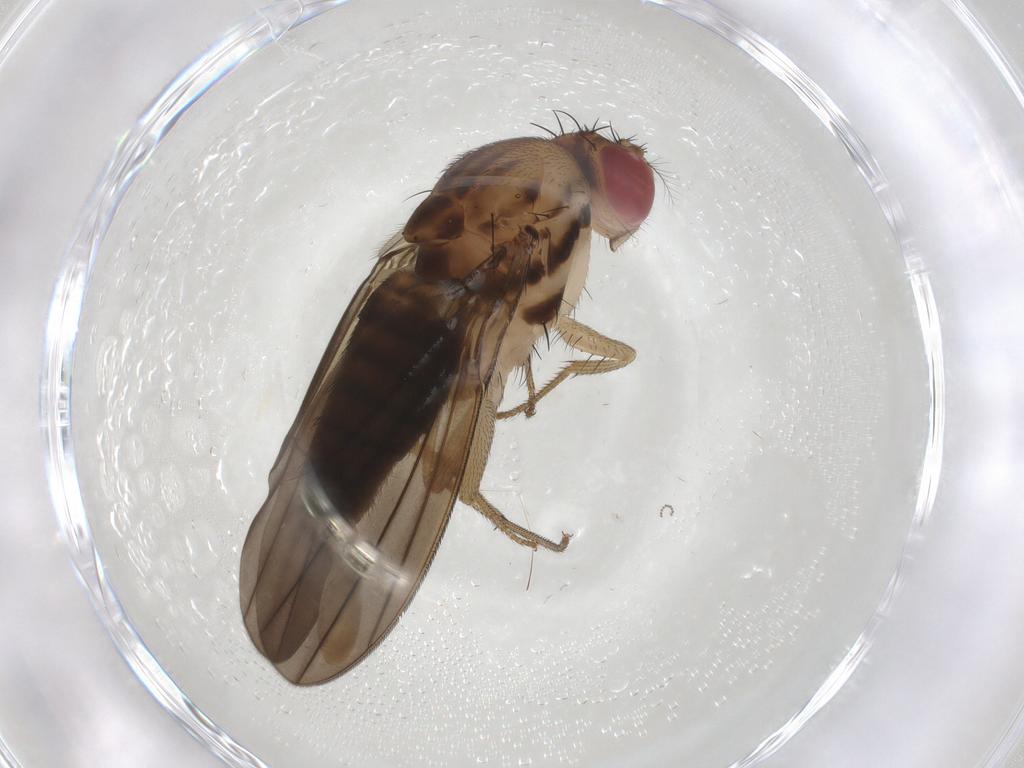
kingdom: Animalia
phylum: Arthropoda
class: Insecta
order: Diptera
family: Drosophilidae
